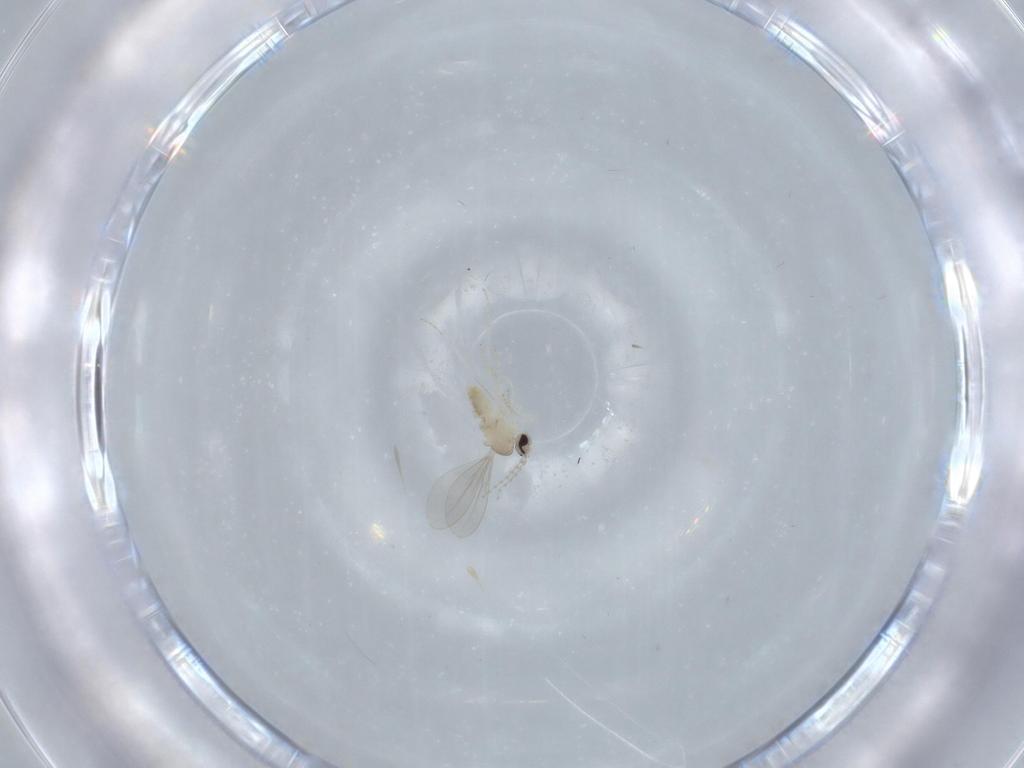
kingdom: Animalia
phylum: Arthropoda
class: Insecta
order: Diptera
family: Cecidomyiidae
